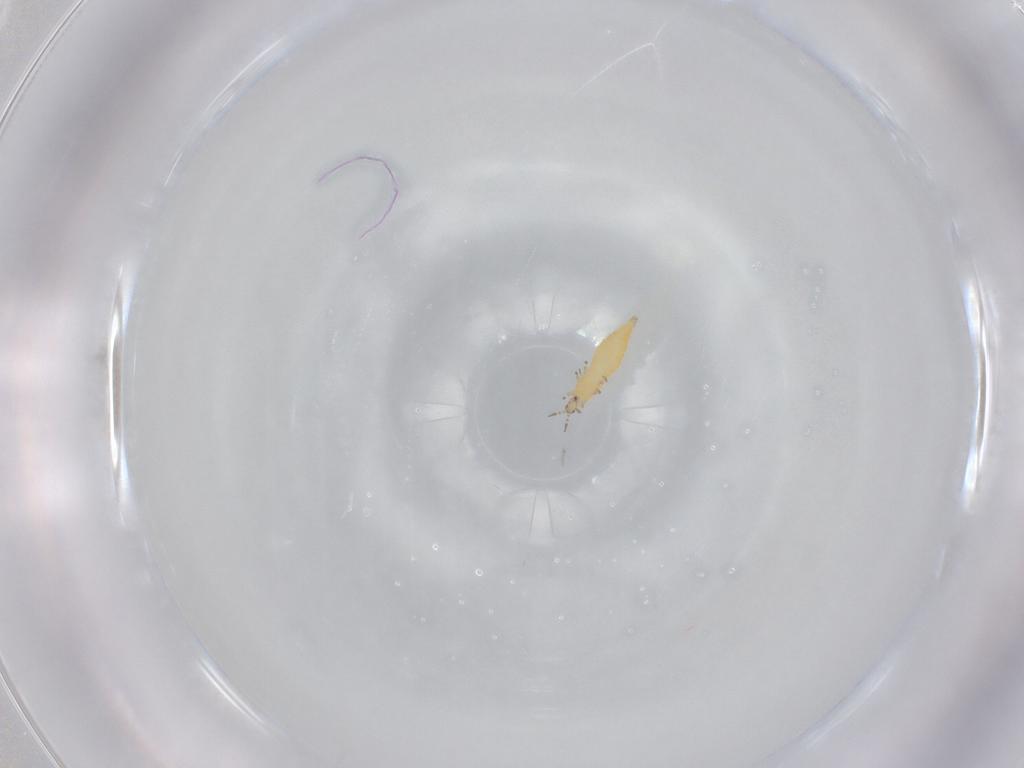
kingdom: Animalia
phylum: Arthropoda
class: Insecta
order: Thysanoptera
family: Thripidae
